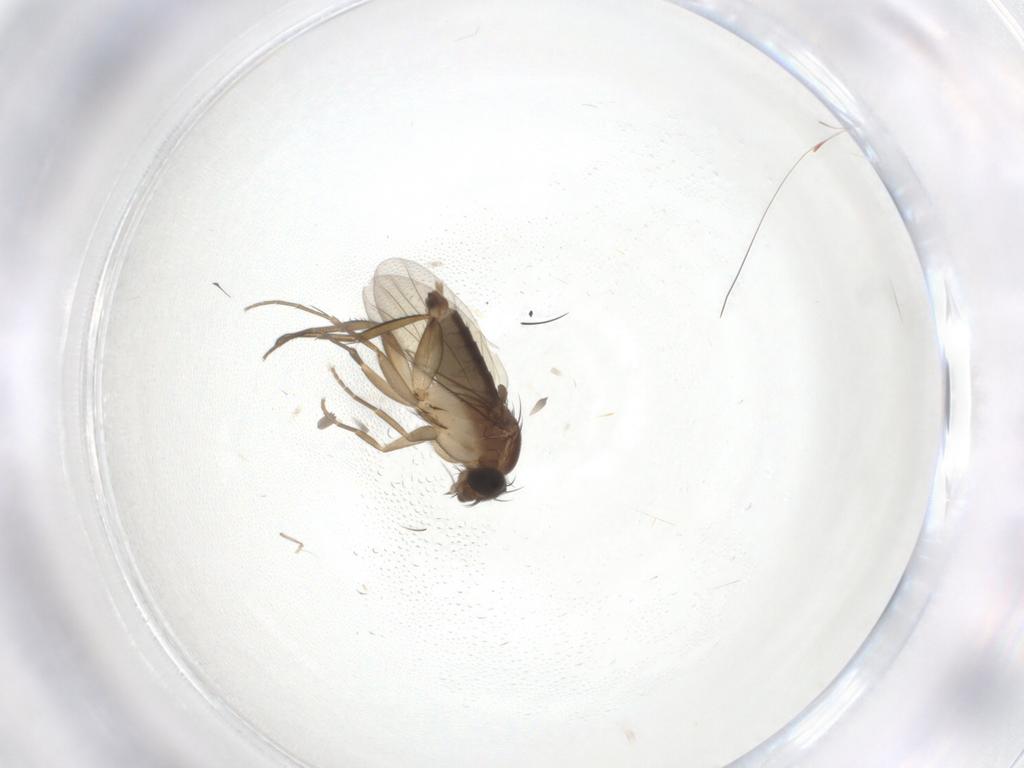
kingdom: Animalia
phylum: Arthropoda
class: Insecta
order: Diptera
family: Phoridae
